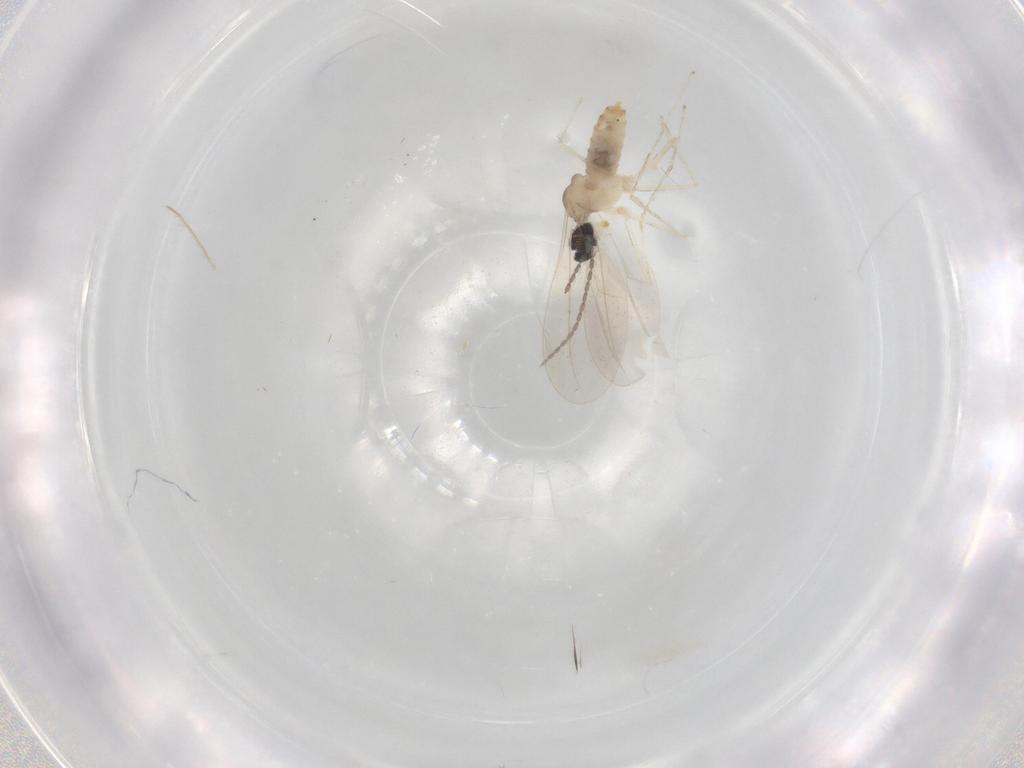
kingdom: Animalia
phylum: Arthropoda
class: Insecta
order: Diptera
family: Cecidomyiidae
